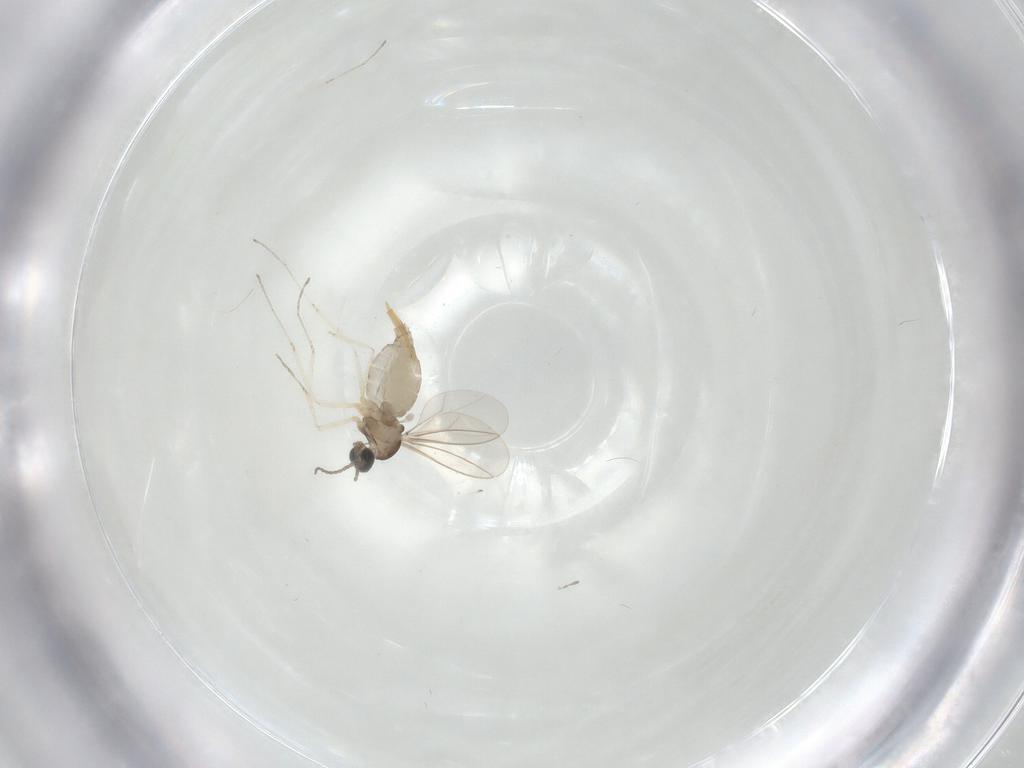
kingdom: Animalia
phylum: Arthropoda
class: Insecta
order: Diptera
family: Cecidomyiidae
